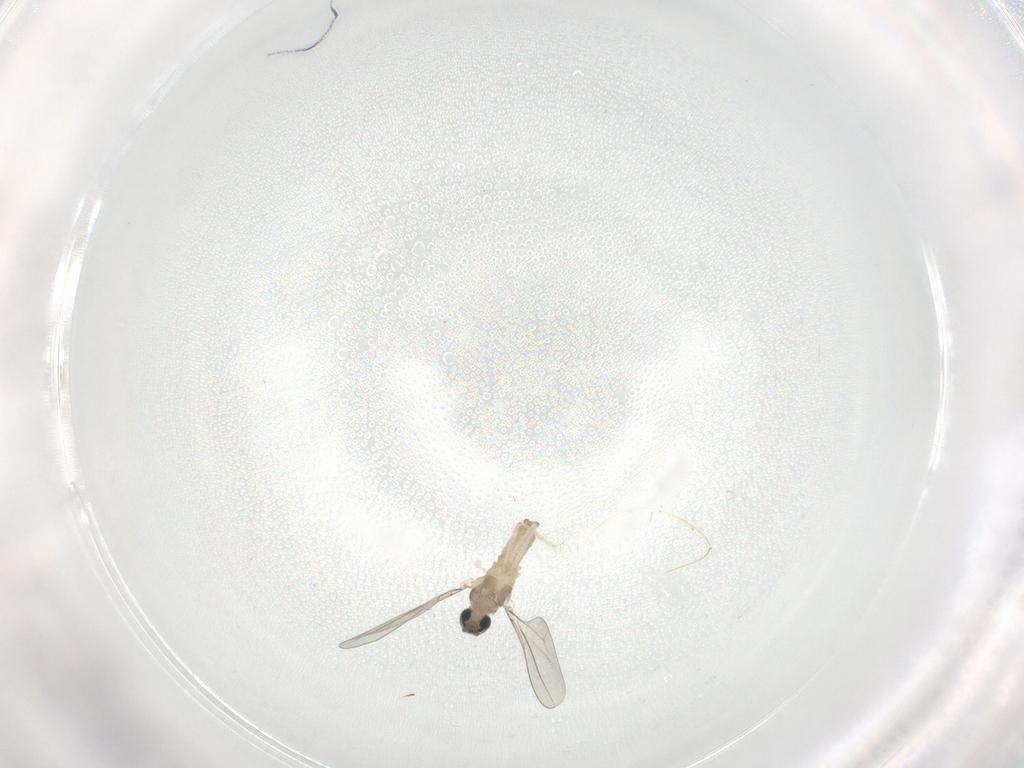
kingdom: Animalia
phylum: Arthropoda
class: Insecta
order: Diptera
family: Cecidomyiidae
